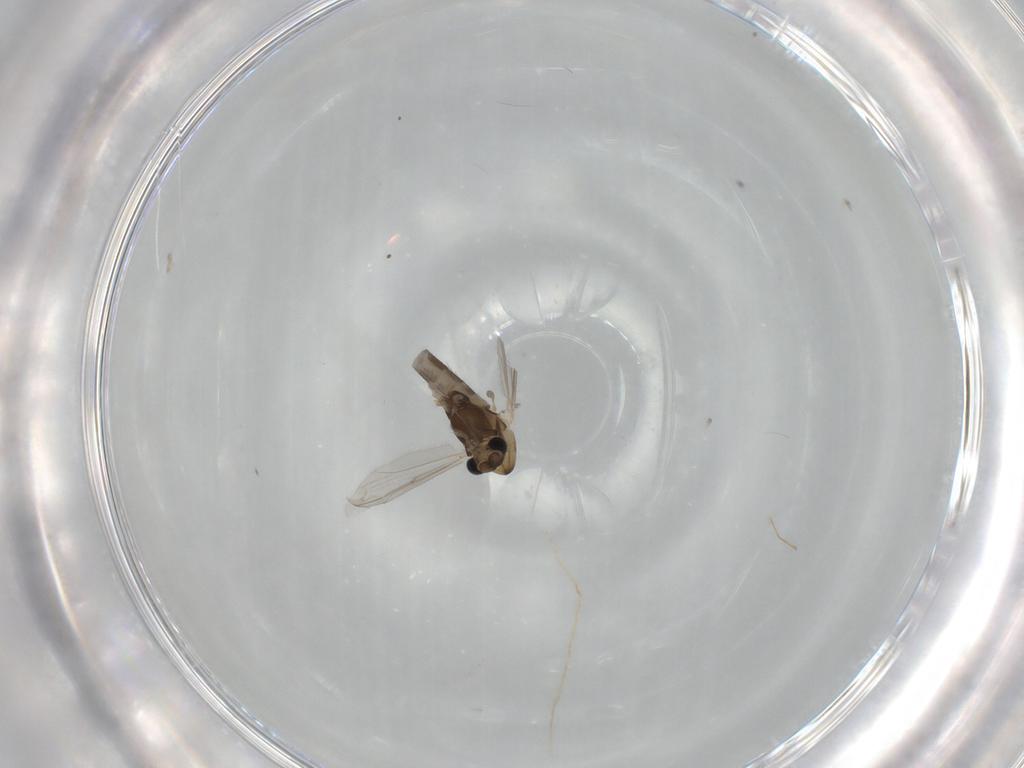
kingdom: Animalia
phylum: Arthropoda
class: Insecta
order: Diptera
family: Chironomidae
